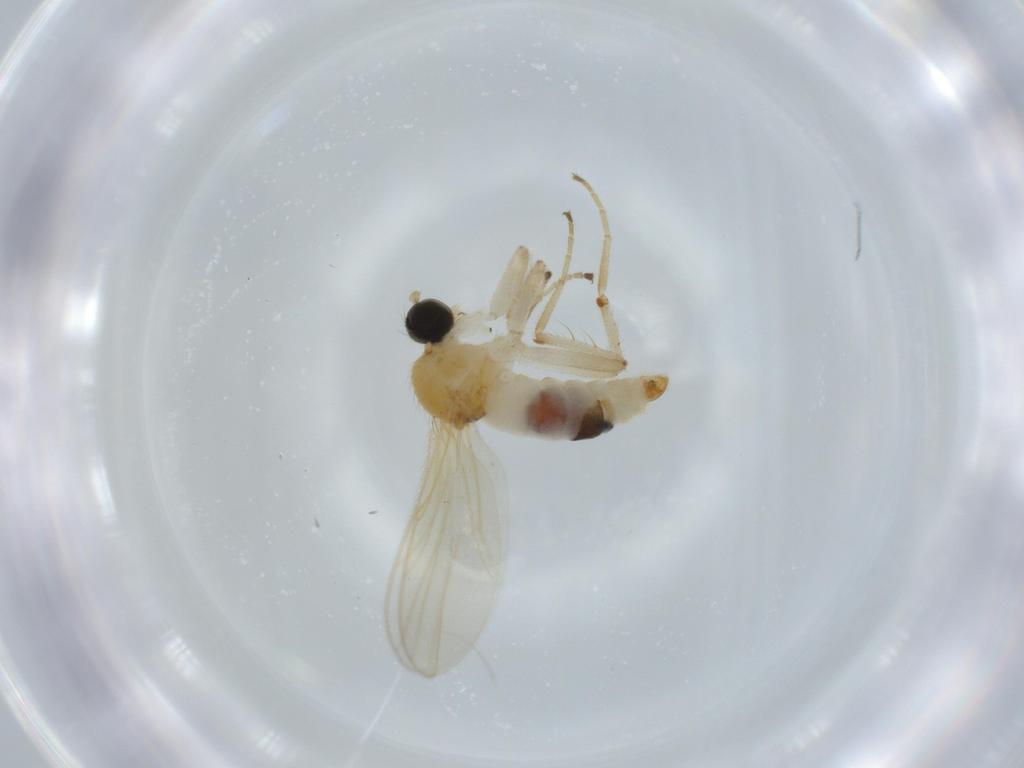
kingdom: Animalia
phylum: Arthropoda
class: Insecta
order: Diptera
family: Hybotidae
